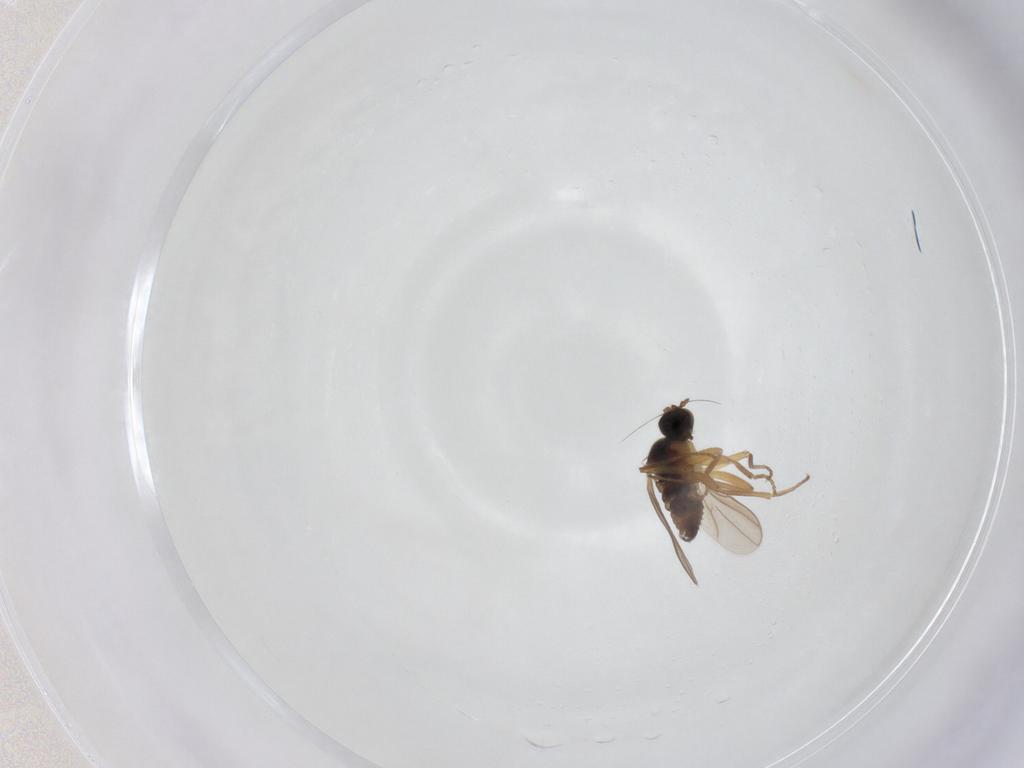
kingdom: Animalia
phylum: Arthropoda
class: Insecta
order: Diptera
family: Hybotidae
